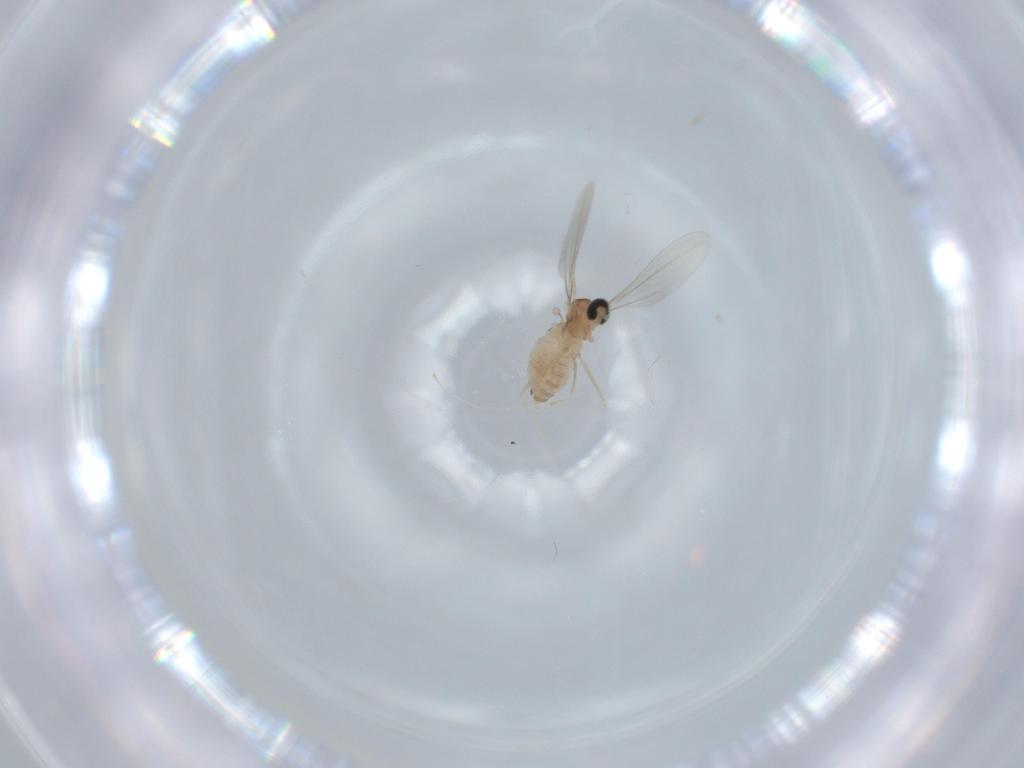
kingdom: Animalia
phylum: Arthropoda
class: Insecta
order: Diptera
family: Cecidomyiidae
